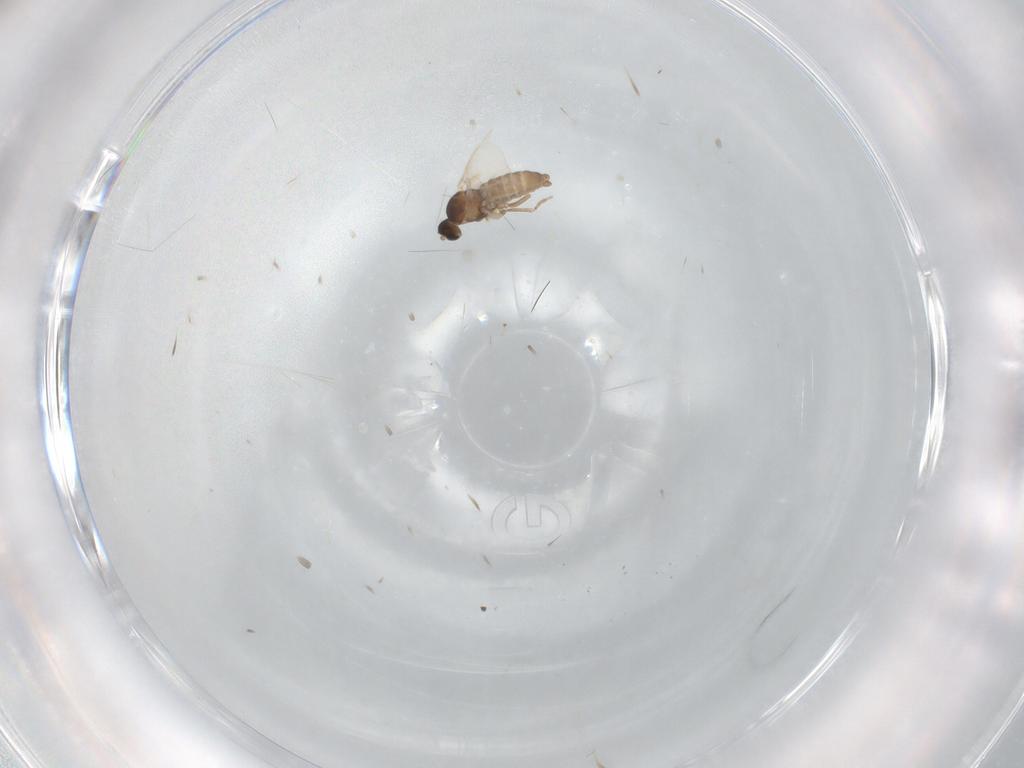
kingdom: Animalia
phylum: Arthropoda
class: Insecta
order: Diptera
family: Cecidomyiidae
